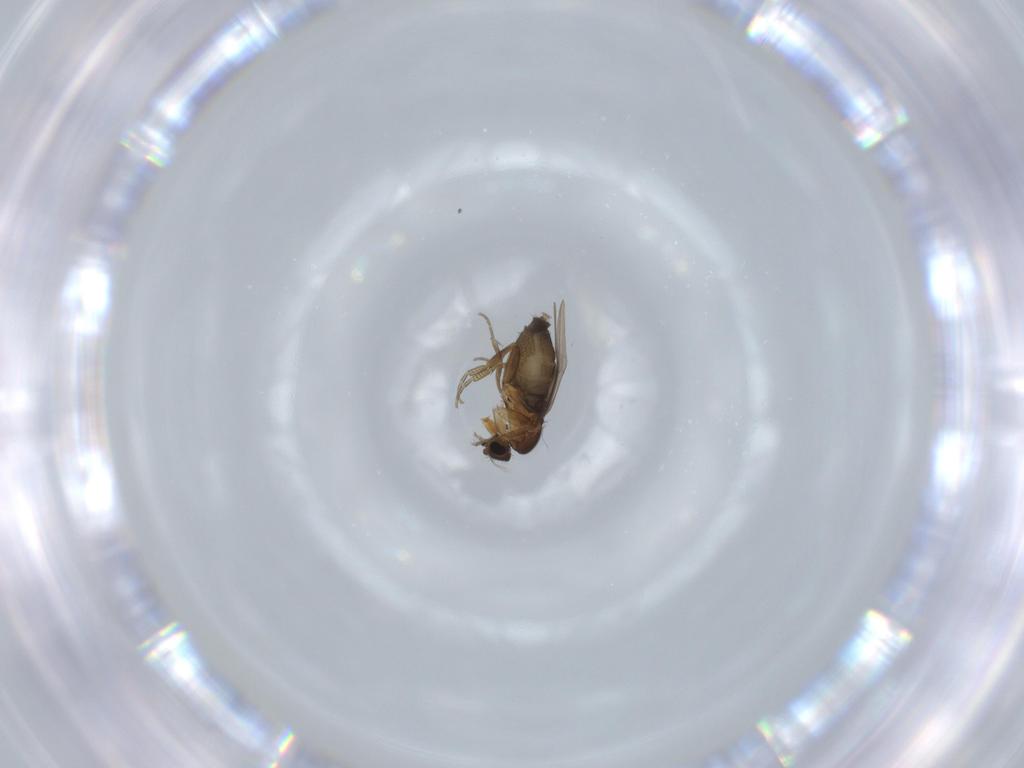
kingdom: Animalia
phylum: Arthropoda
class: Insecta
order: Diptera
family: Phoridae
